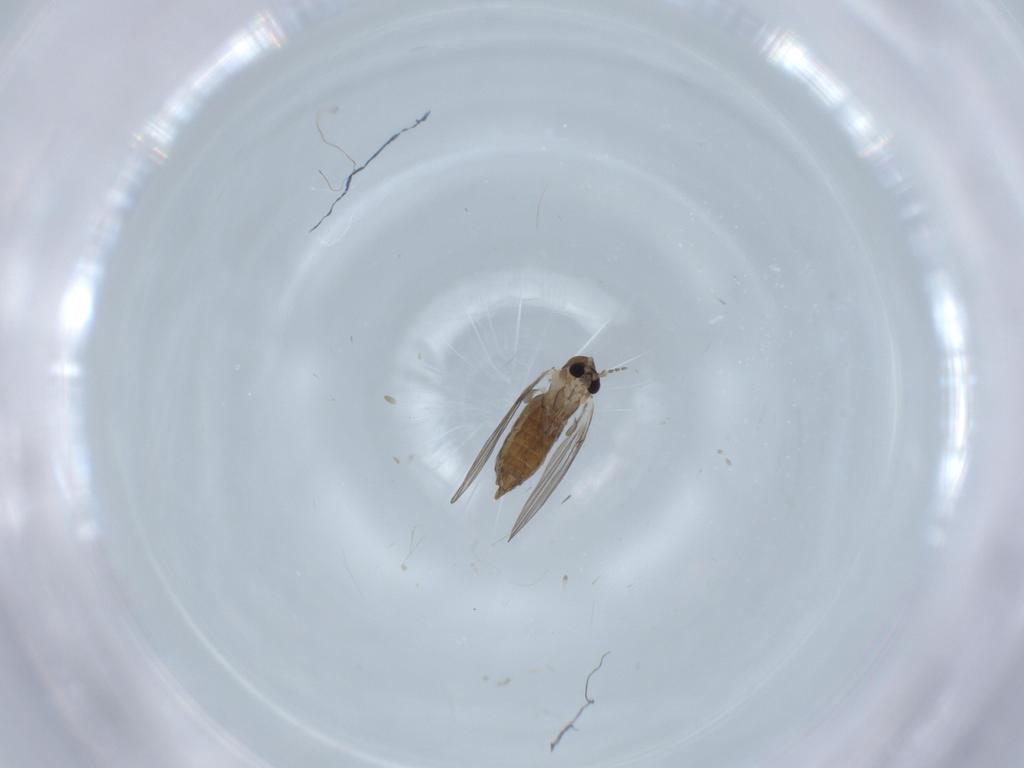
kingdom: Animalia
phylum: Arthropoda
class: Insecta
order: Diptera
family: Stratiomyidae
